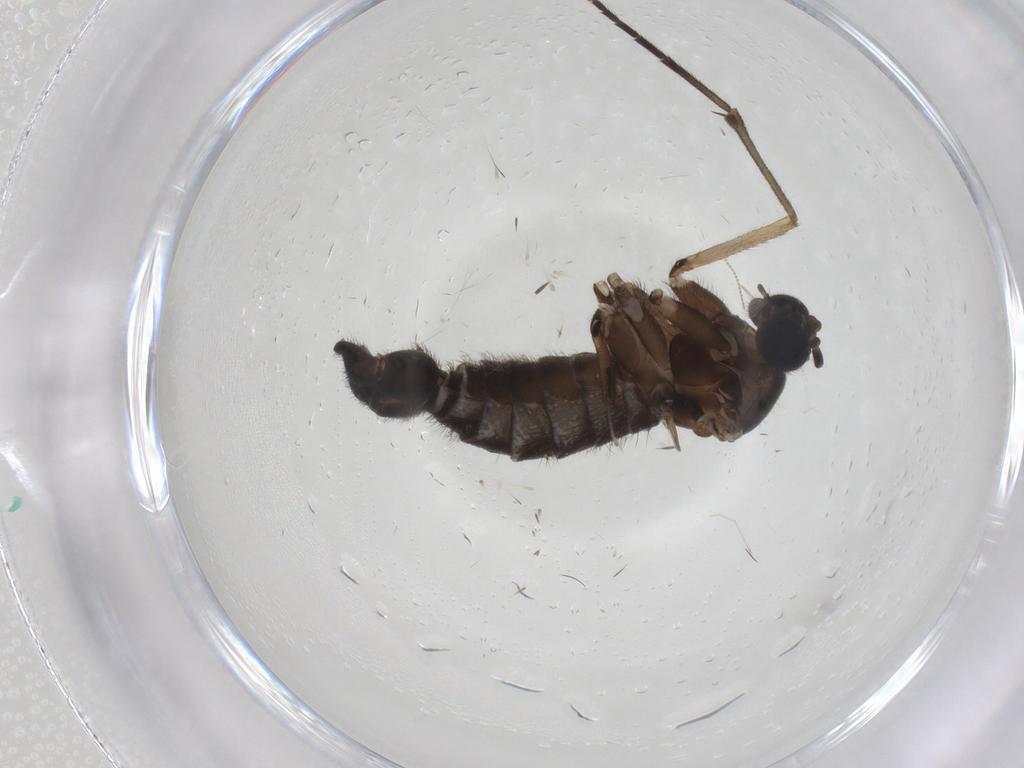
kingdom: Animalia
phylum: Arthropoda
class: Insecta
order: Diptera
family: Sciaridae
